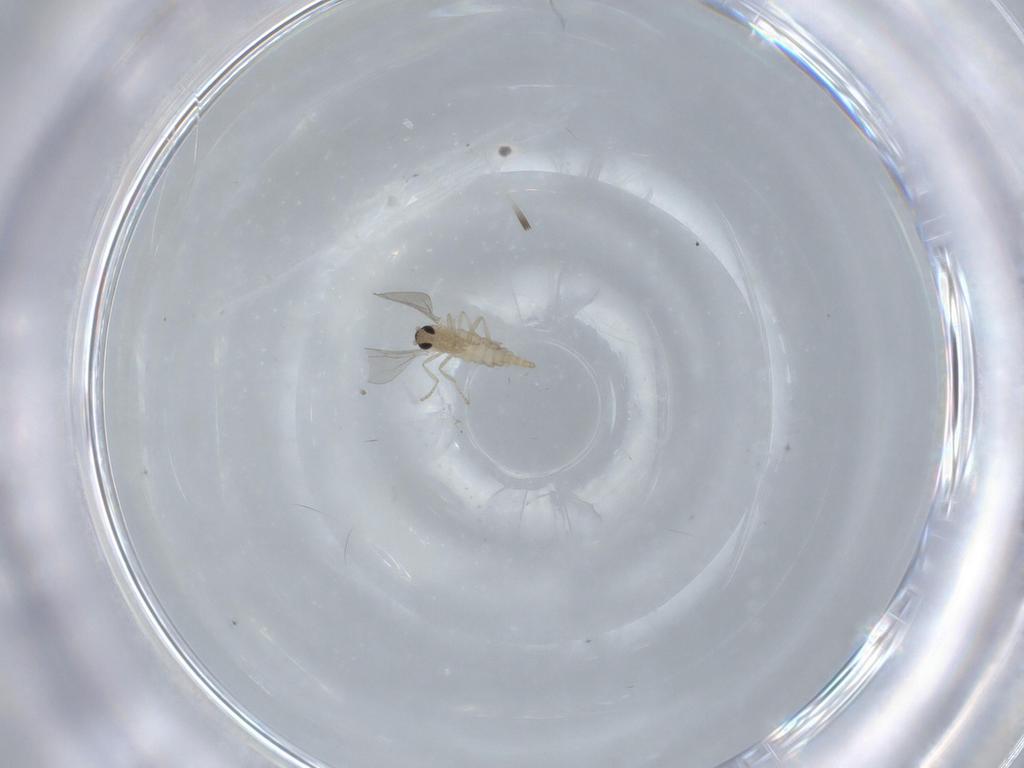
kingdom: Animalia
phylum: Arthropoda
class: Insecta
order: Diptera
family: Cecidomyiidae
